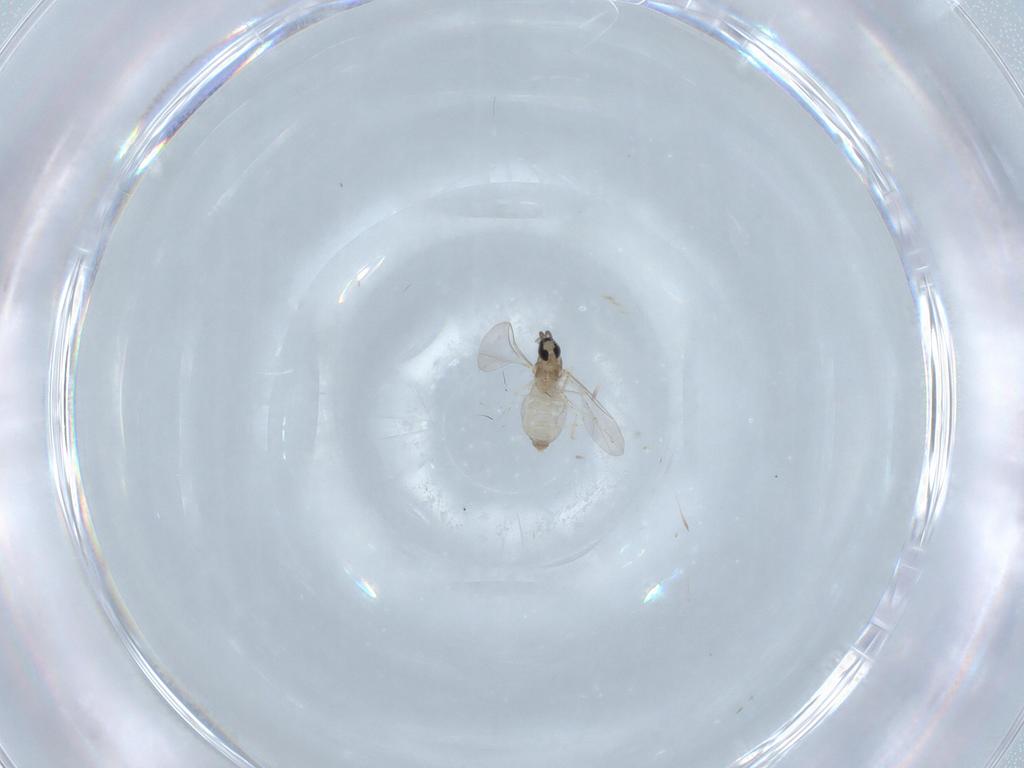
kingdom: Animalia
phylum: Arthropoda
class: Insecta
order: Diptera
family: Cecidomyiidae
